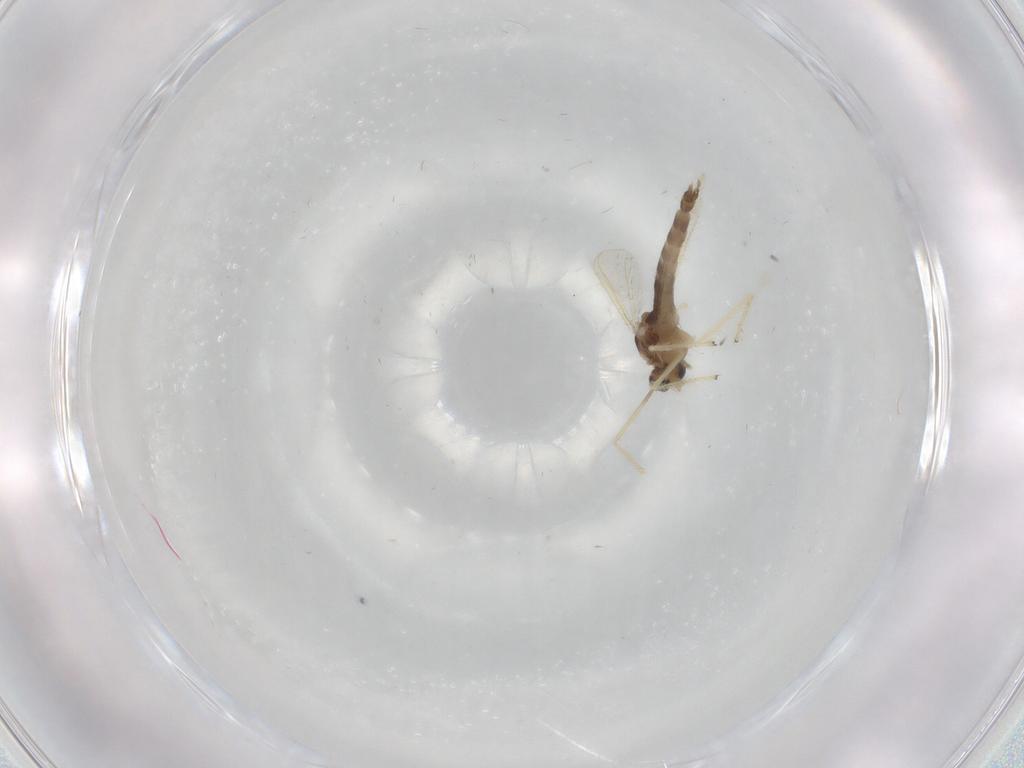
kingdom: Animalia
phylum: Arthropoda
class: Insecta
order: Diptera
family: Chironomidae
